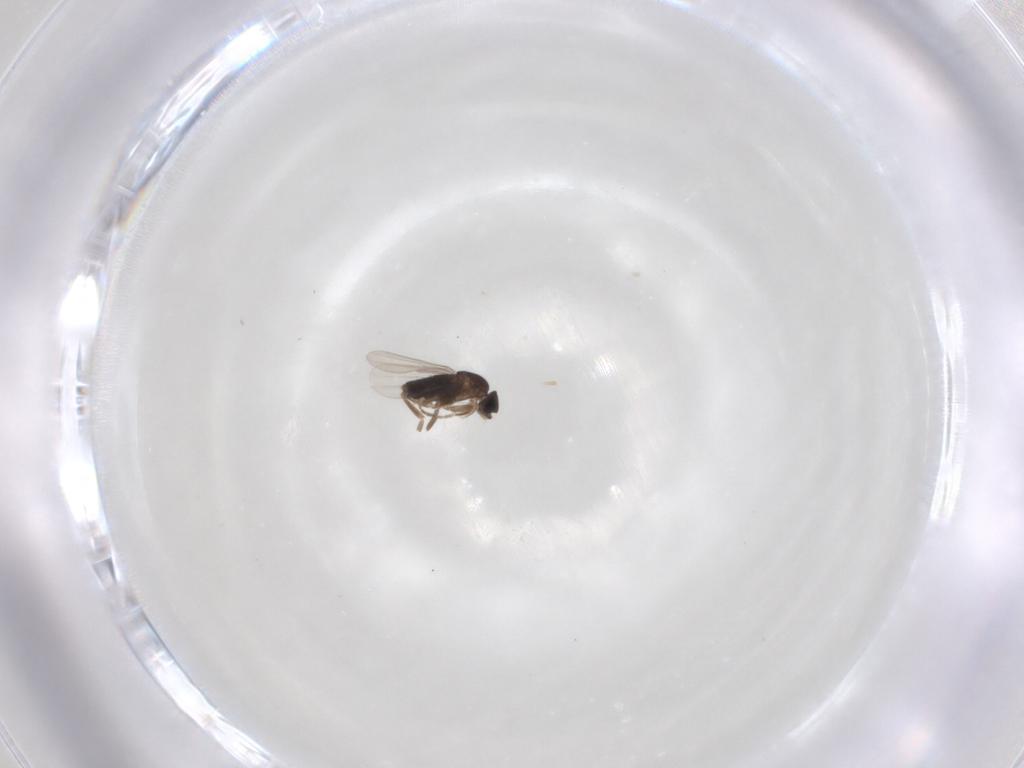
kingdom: Animalia
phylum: Arthropoda
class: Insecta
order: Diptera
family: Phoridae
